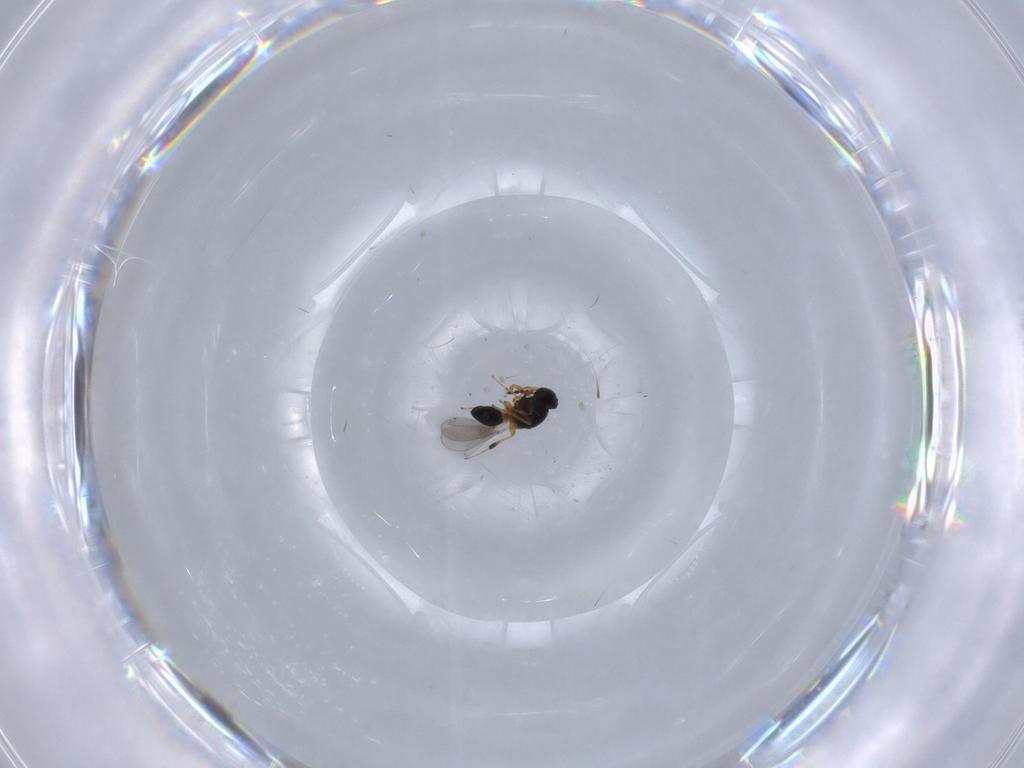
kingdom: Animalia
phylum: Arthropoda
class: Insecta
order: Hymenoptera
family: Platygastridae
